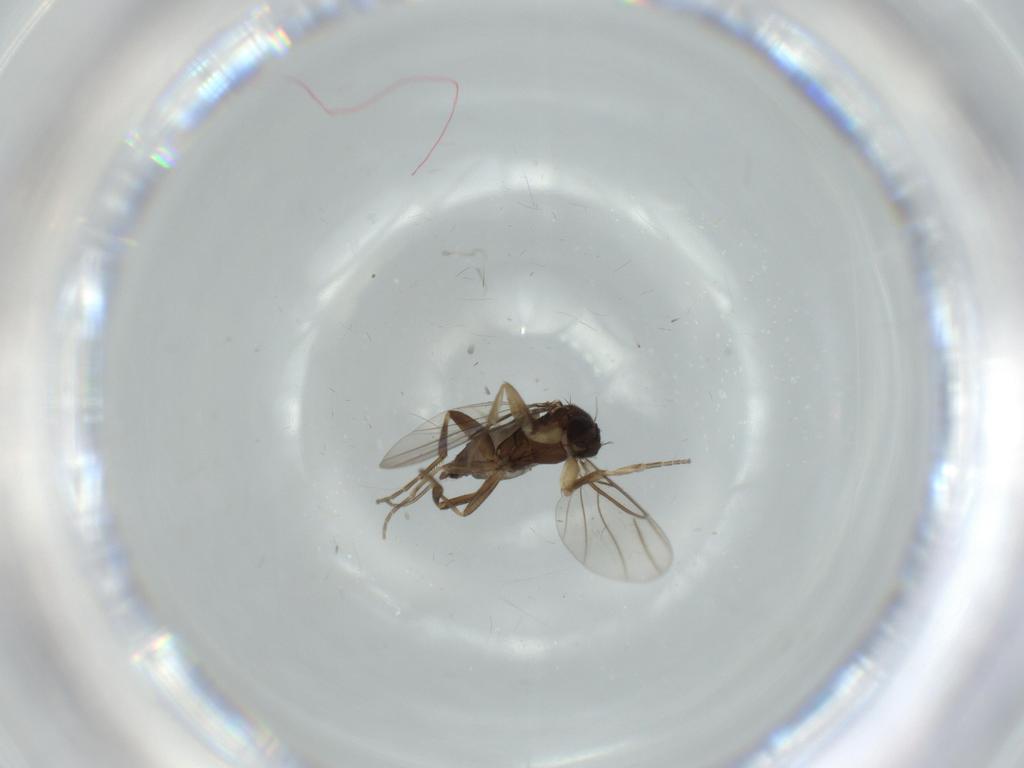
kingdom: Animalia
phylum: Arthropoda
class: Insecta
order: Diptera
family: Phoridae
